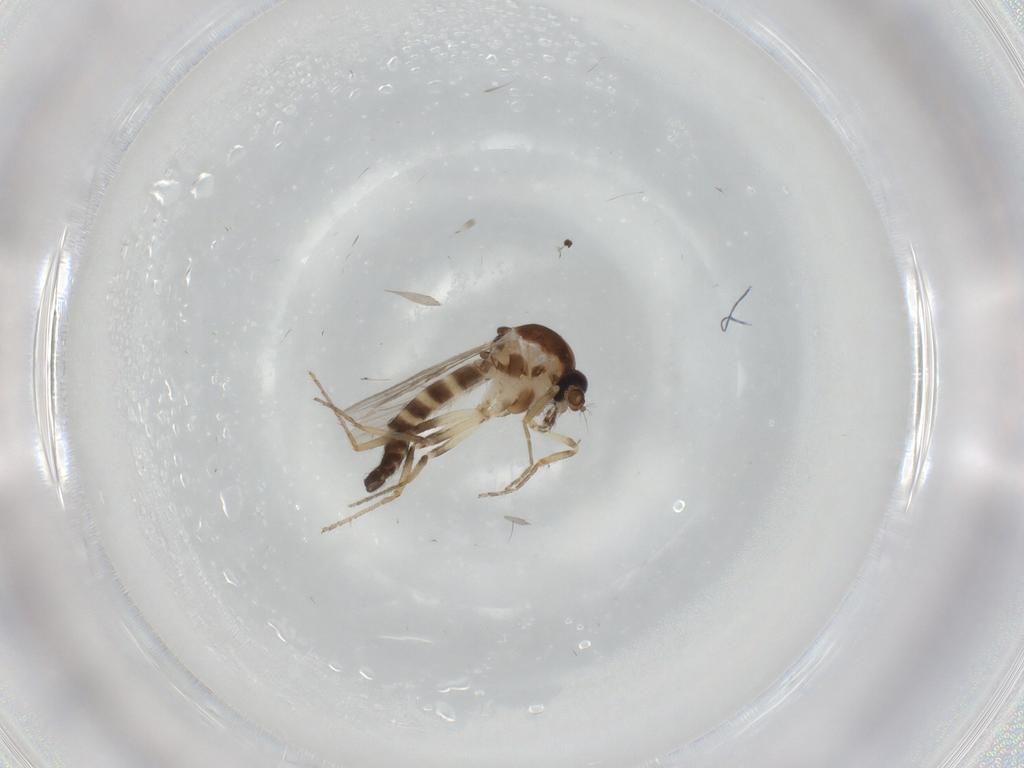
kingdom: Animalia
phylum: Arthropoda
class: Insecta
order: Diptera
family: Ceratopogonidae
